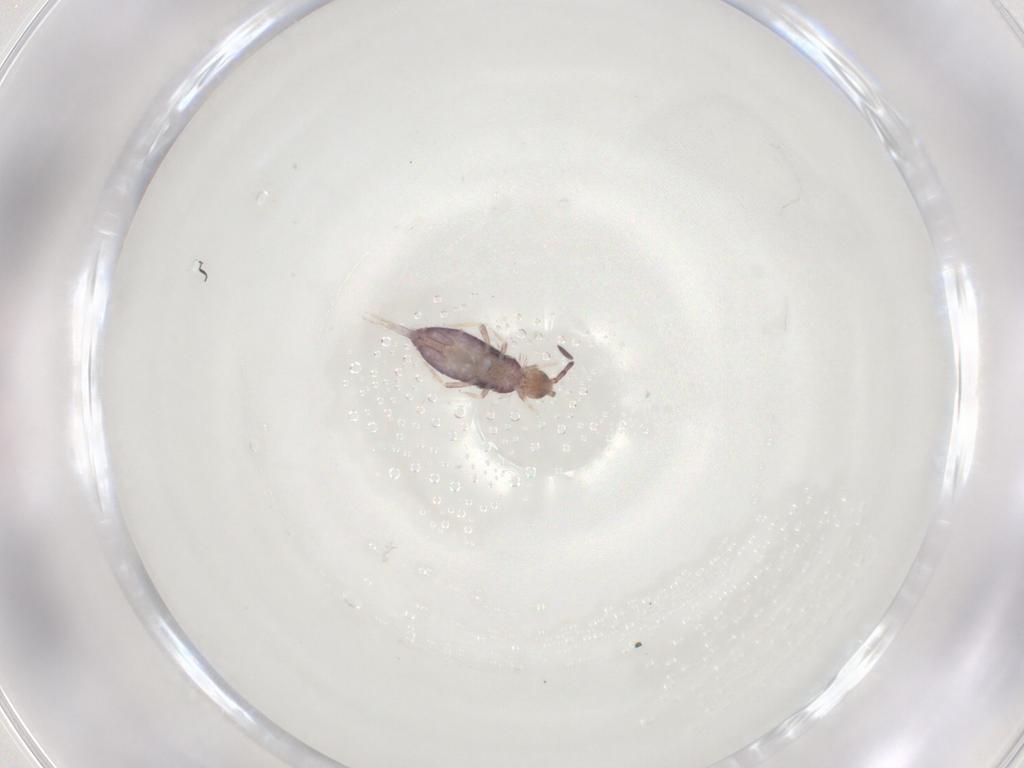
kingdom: Animalia
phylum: Arthropoda
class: Collembola
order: Entomobryomorpha
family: Entomobryidae
